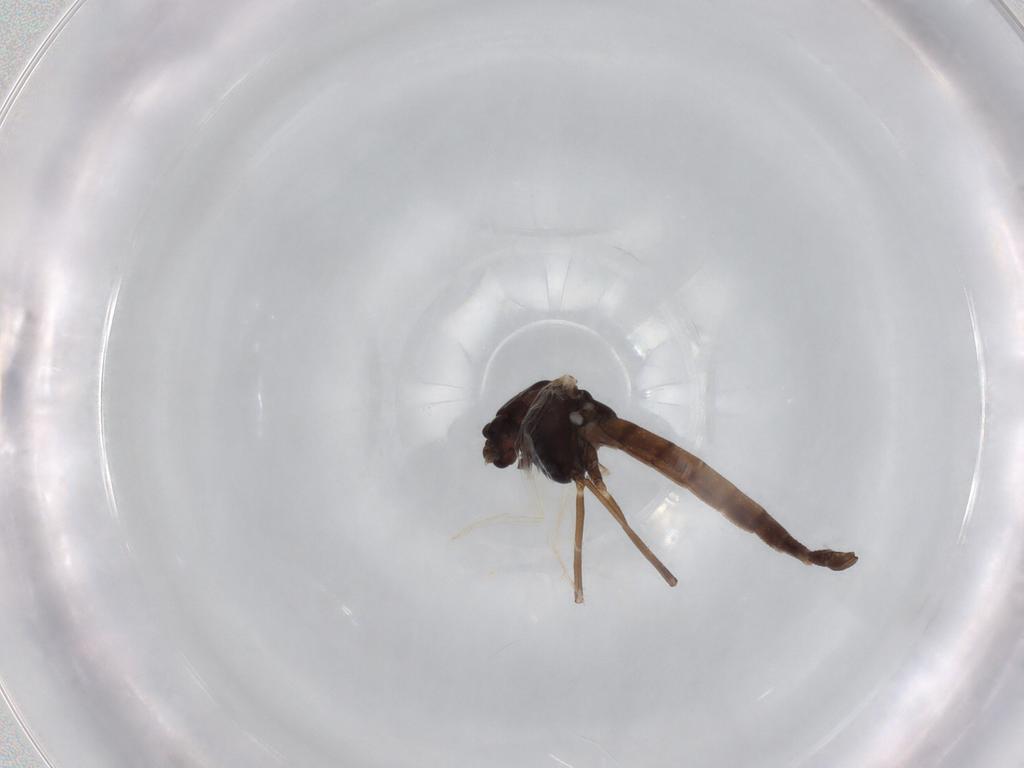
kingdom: Animalia
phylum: Arthropoda
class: Insecta
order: Diptera
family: Chironomidae
